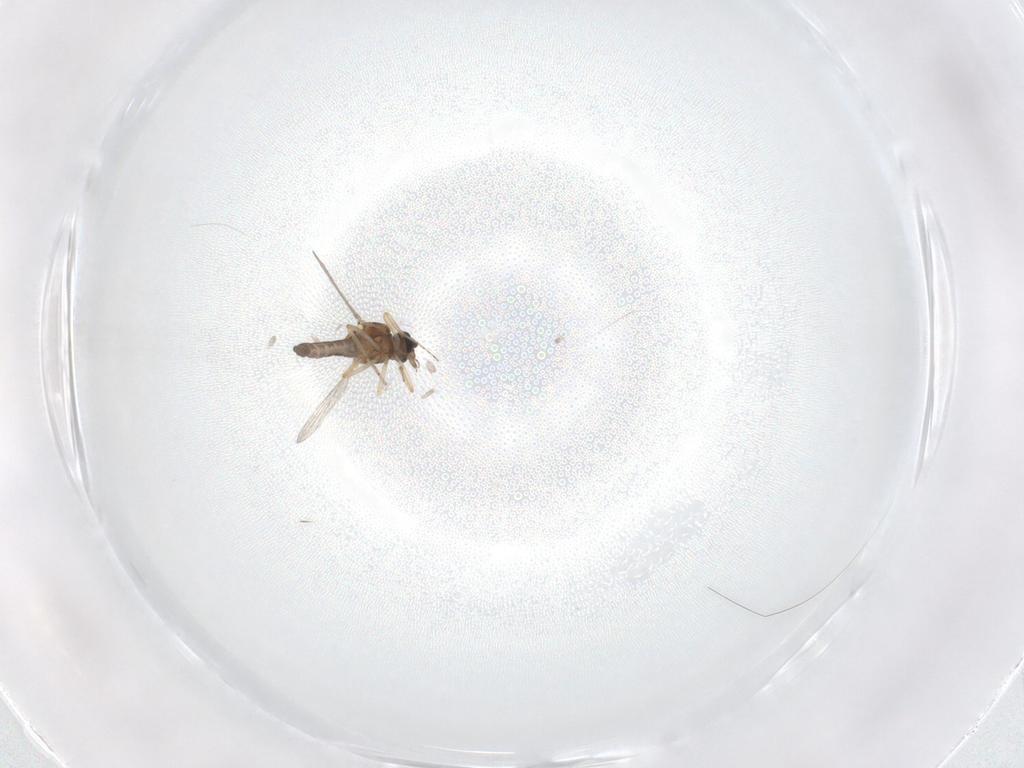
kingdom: Animalia
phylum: Arthropoda
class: Insecta
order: Diptera
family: Ceratopogonidae
